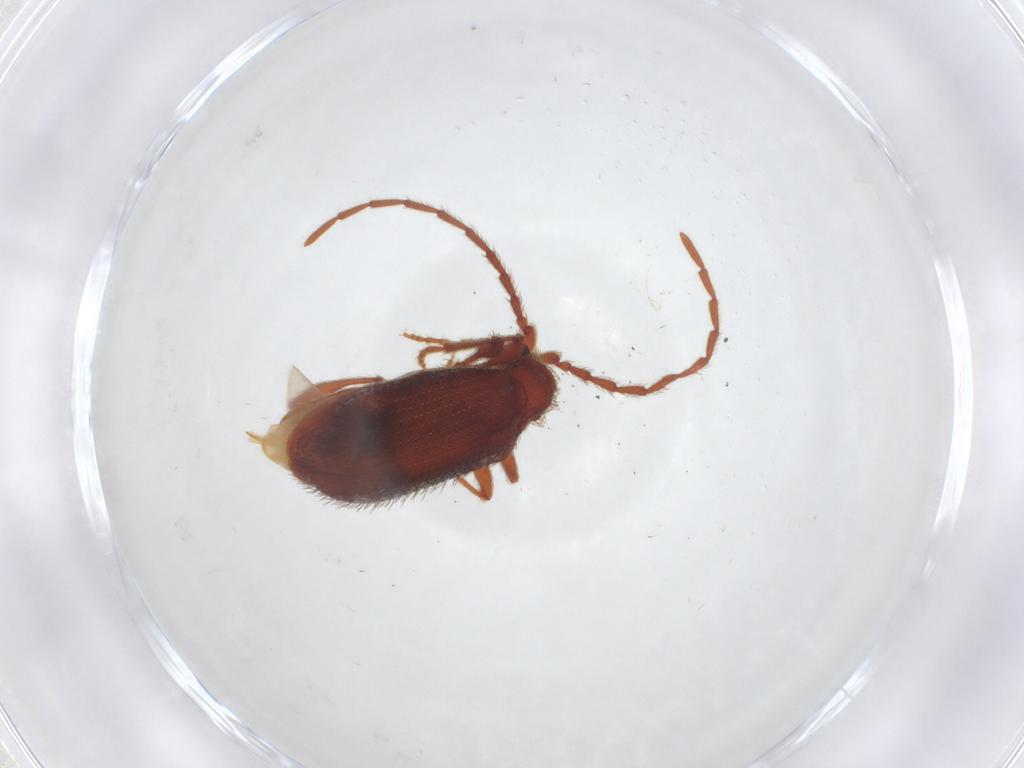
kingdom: Animalia
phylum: Arthropoda
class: Insecta
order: Coleoptera
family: Ptinidae
